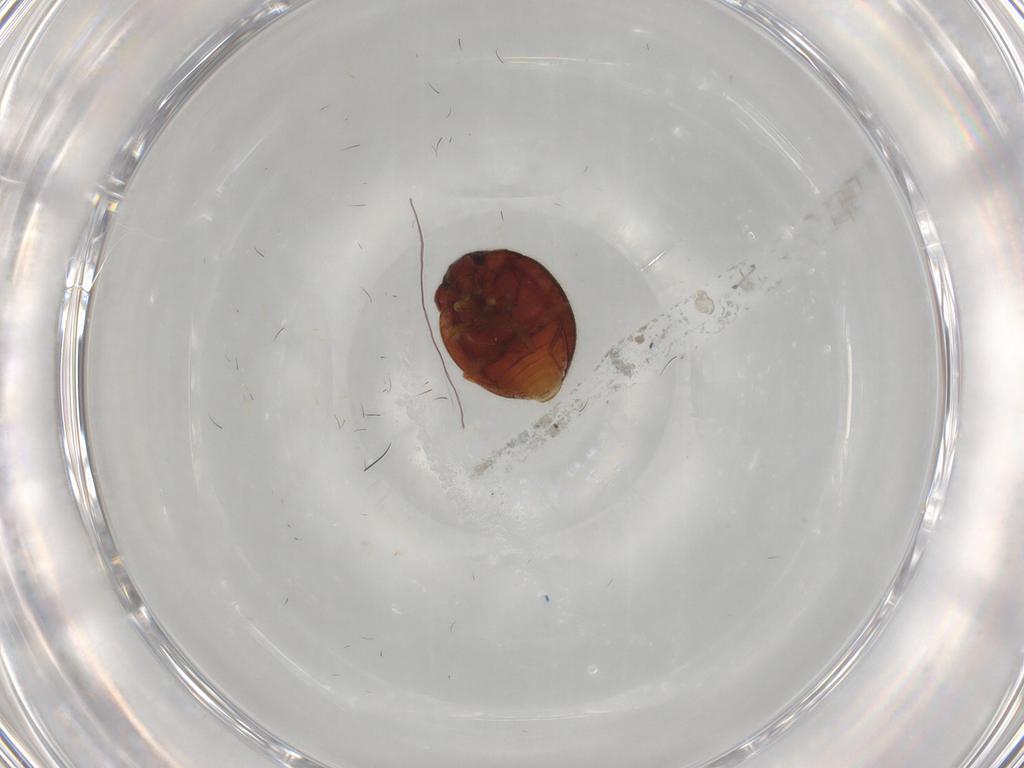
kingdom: Animalia
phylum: Arthropoda
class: Insecta
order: Coleoptera
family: Anamorphidae
